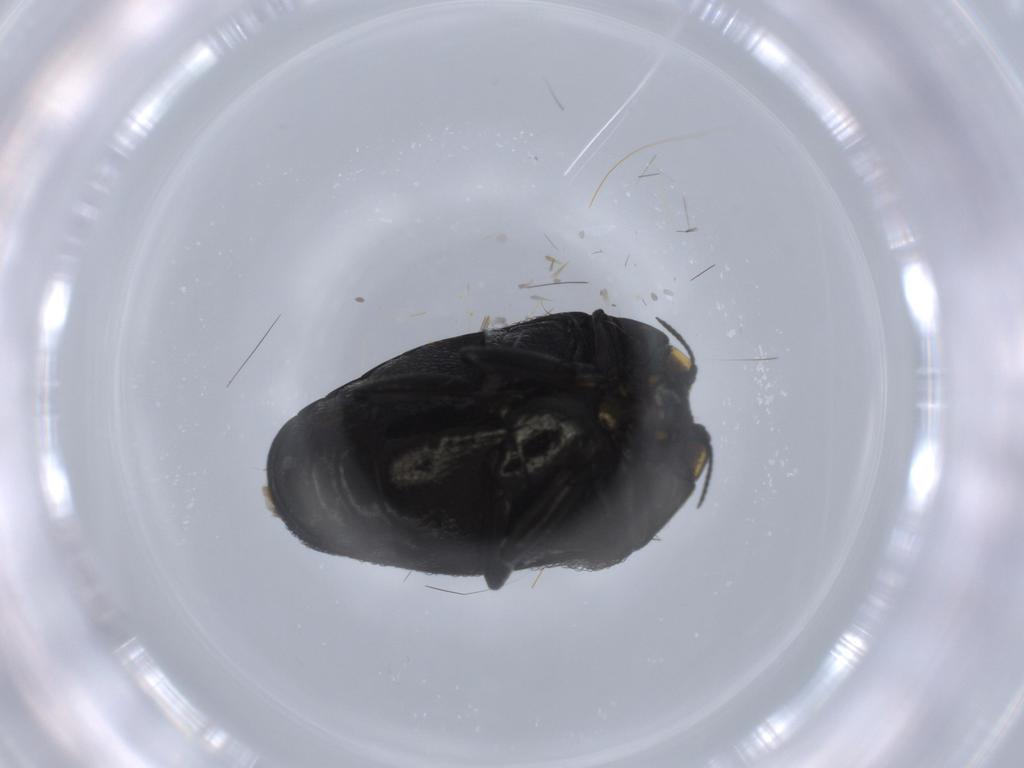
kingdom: Animalia
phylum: Arthropoda
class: Insecta
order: Coleoptera
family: Buprestidae
